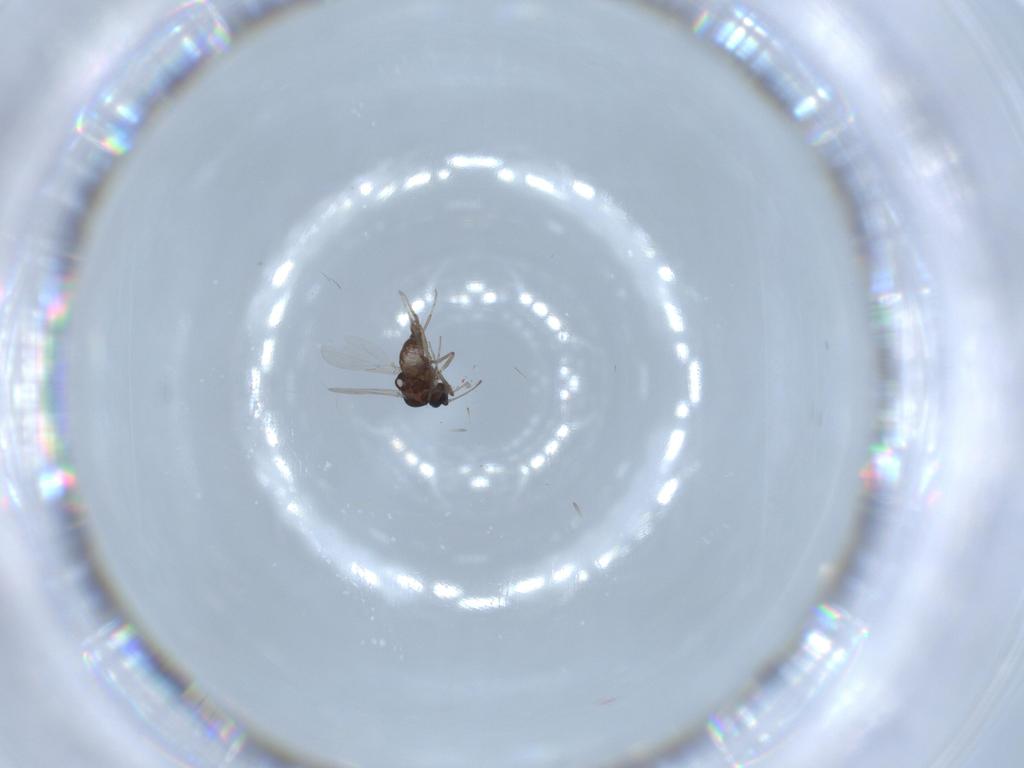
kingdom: Animalia
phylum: Arthropoda
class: Insecta
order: Diptera
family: Ceratopogonidae
